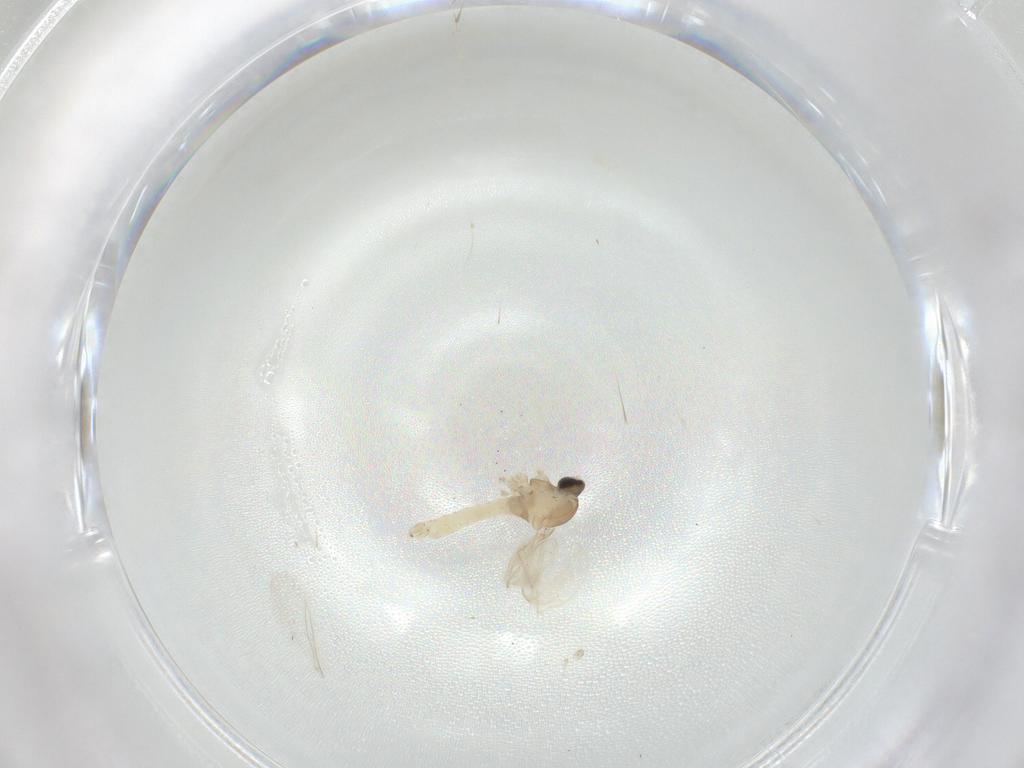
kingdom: Animalia
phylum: Arthropoda
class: Insecta
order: Diptera
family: Cecidomyiidae
